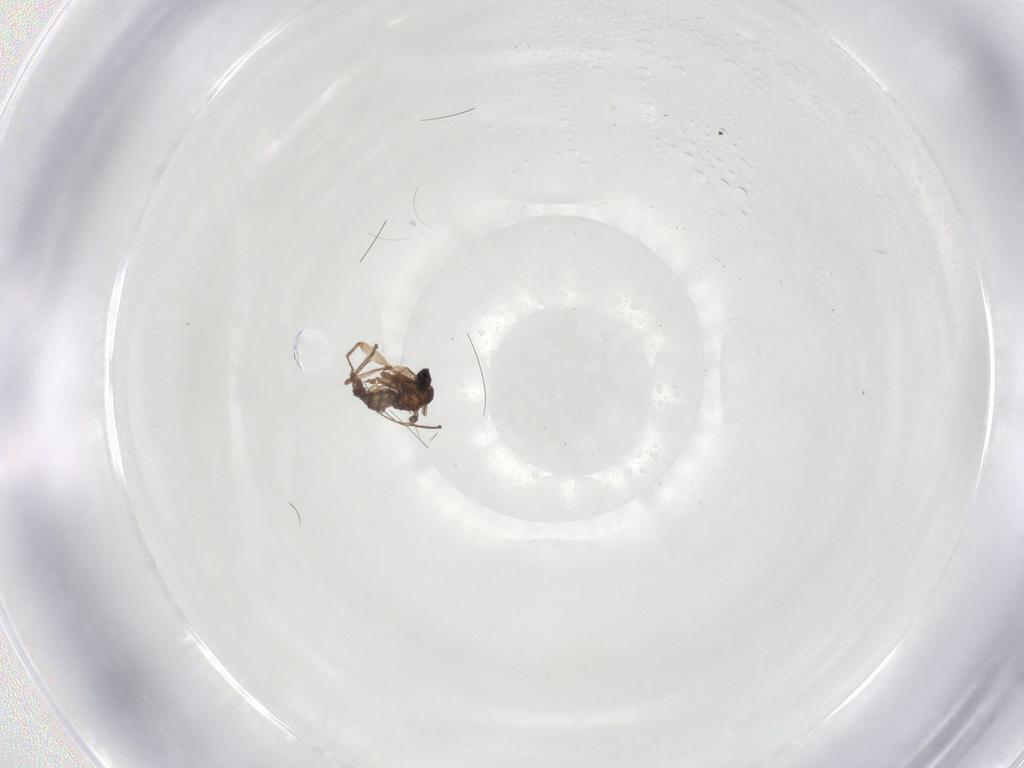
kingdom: Animalia
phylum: Arthropoda
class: Insecta
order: Diptera
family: Sciaridae
